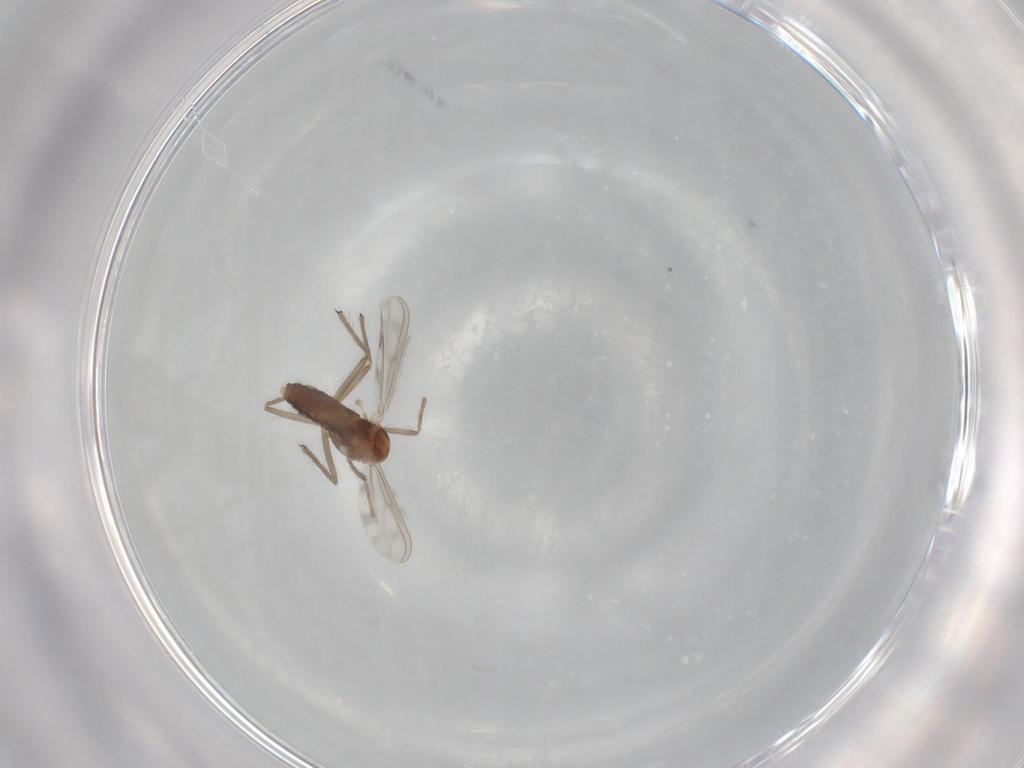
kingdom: Animalia
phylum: Arthropoda
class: Insecta
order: Diptera
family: Chironomidae
